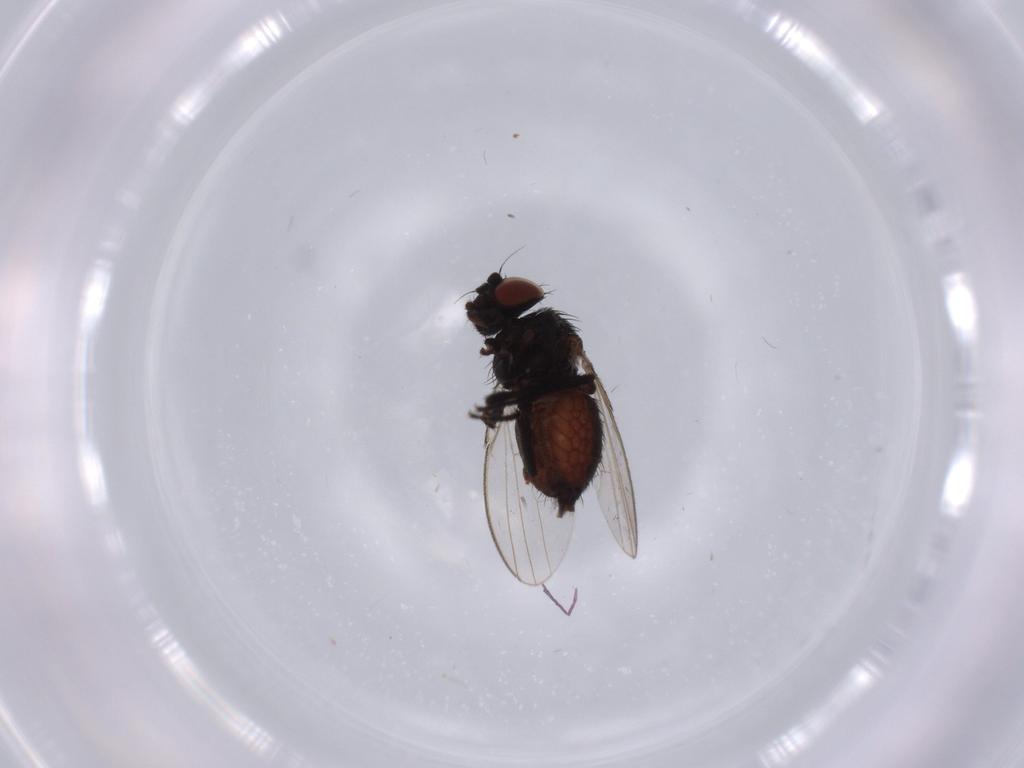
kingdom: Animalia
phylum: Arthropoda
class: Insecta
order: Diptera
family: Milichiidae
